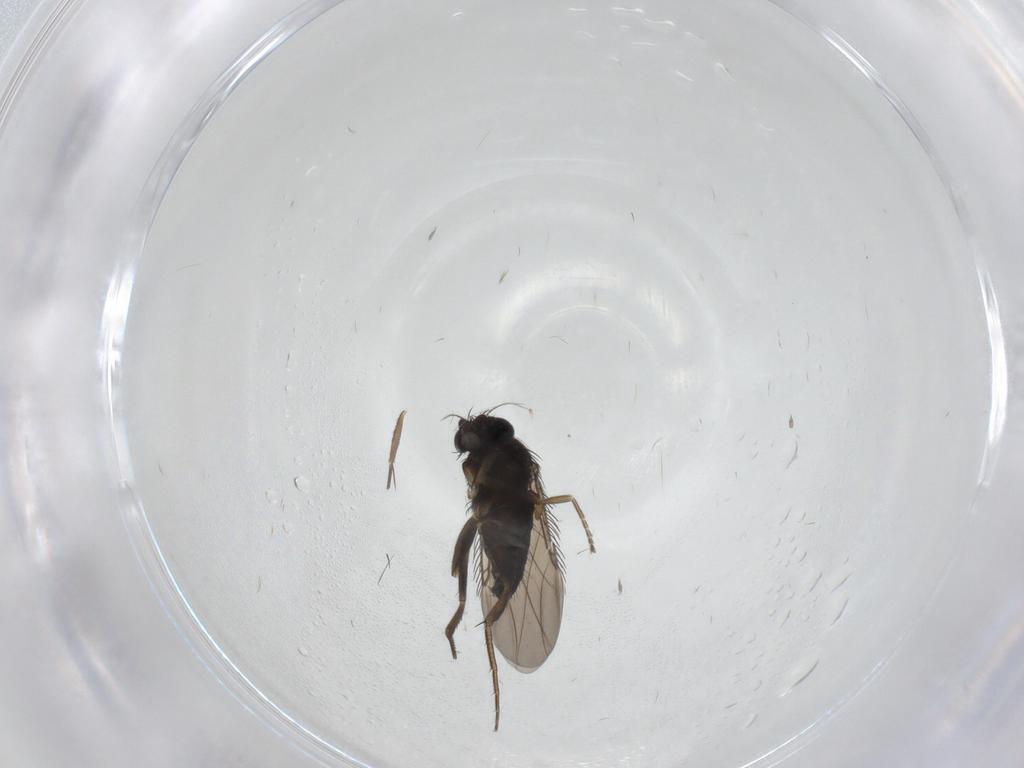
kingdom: Animalia
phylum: Arthropoda
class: Insecta
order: Diptera
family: Phoridae
